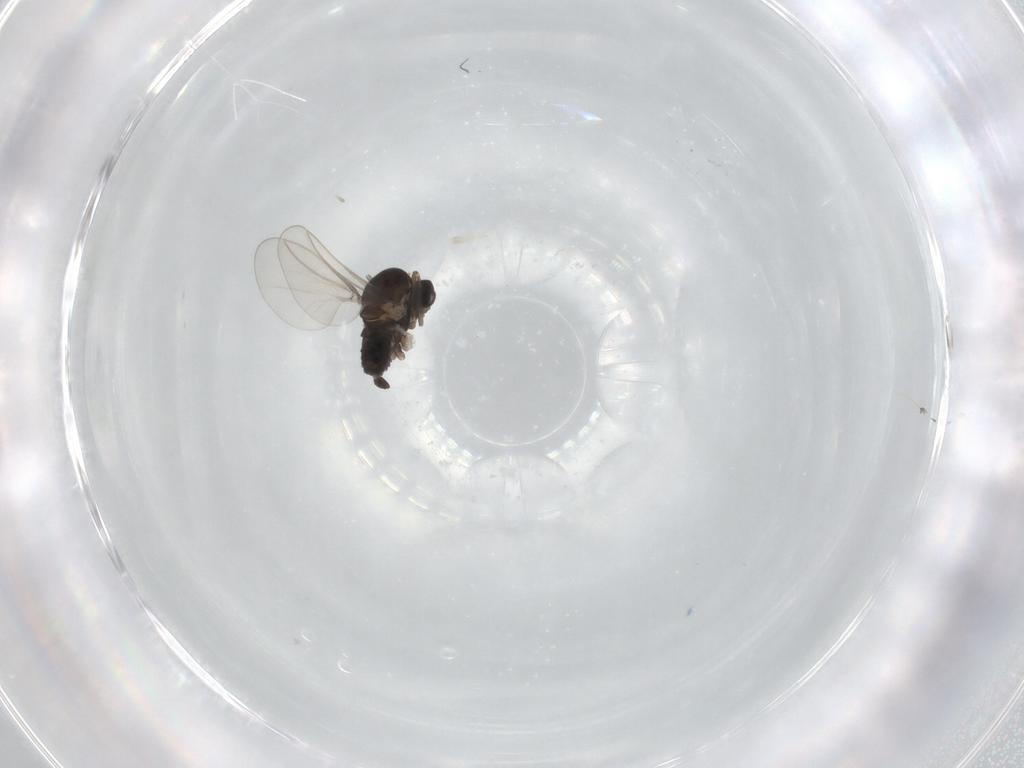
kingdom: Animalia
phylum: Arthropoda
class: Insecta
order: Diptera
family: Cecidomyiidae
